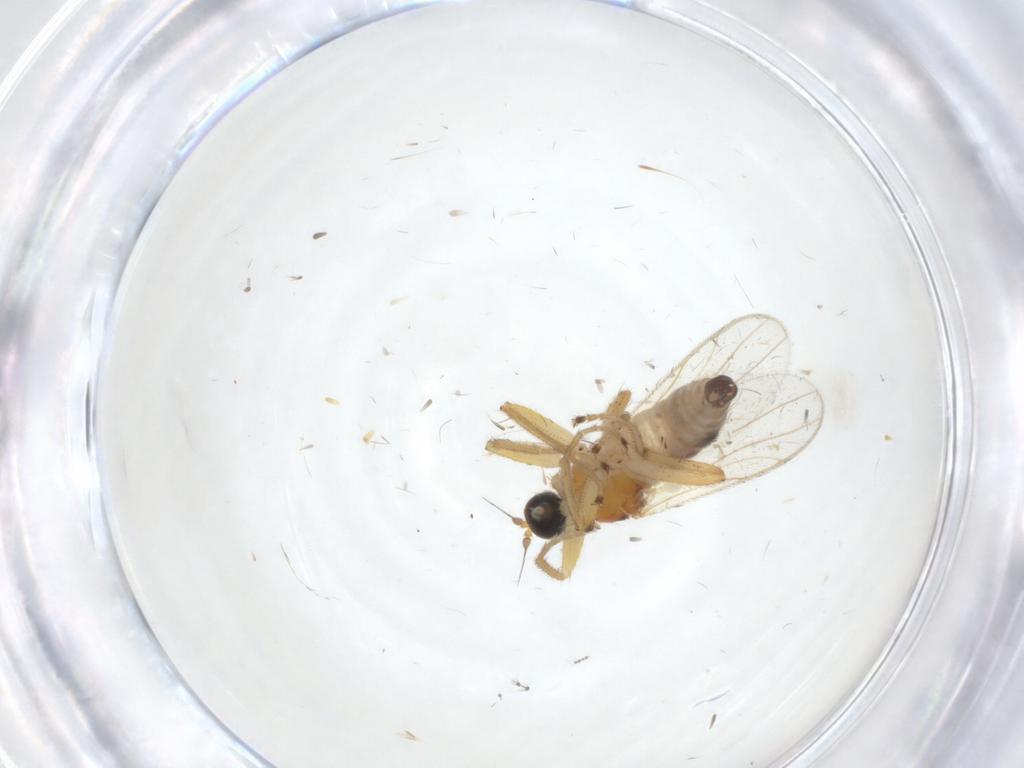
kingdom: Animalia
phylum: Arthropoda
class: Insecta
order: Diptera
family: Hybotidae
